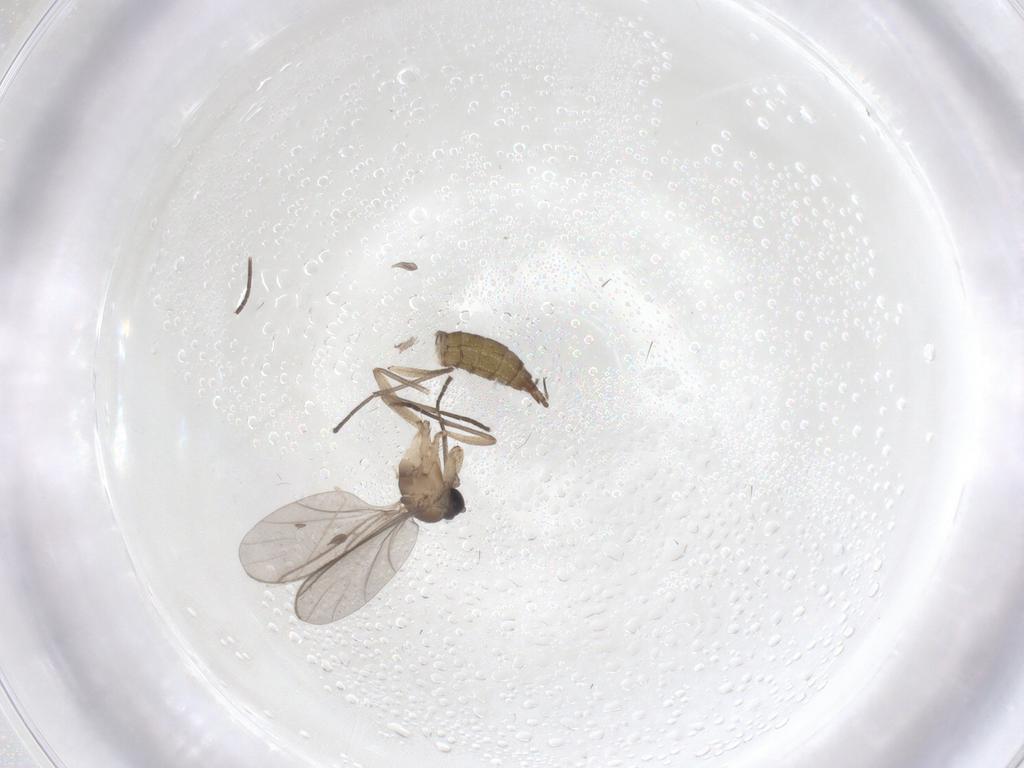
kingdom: Animalia
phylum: Arthropoda
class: Insecta
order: Diptera
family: Sciaridae
